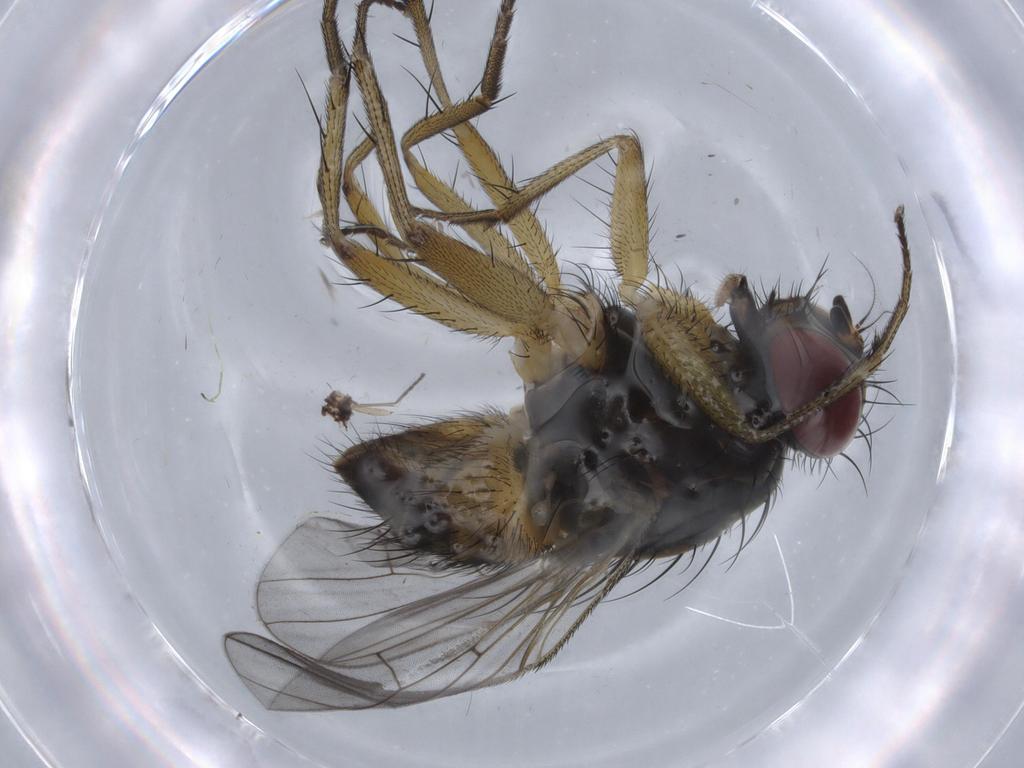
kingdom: Animalia
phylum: Arthropoda
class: Insecta
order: Diptera
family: Muscidae
